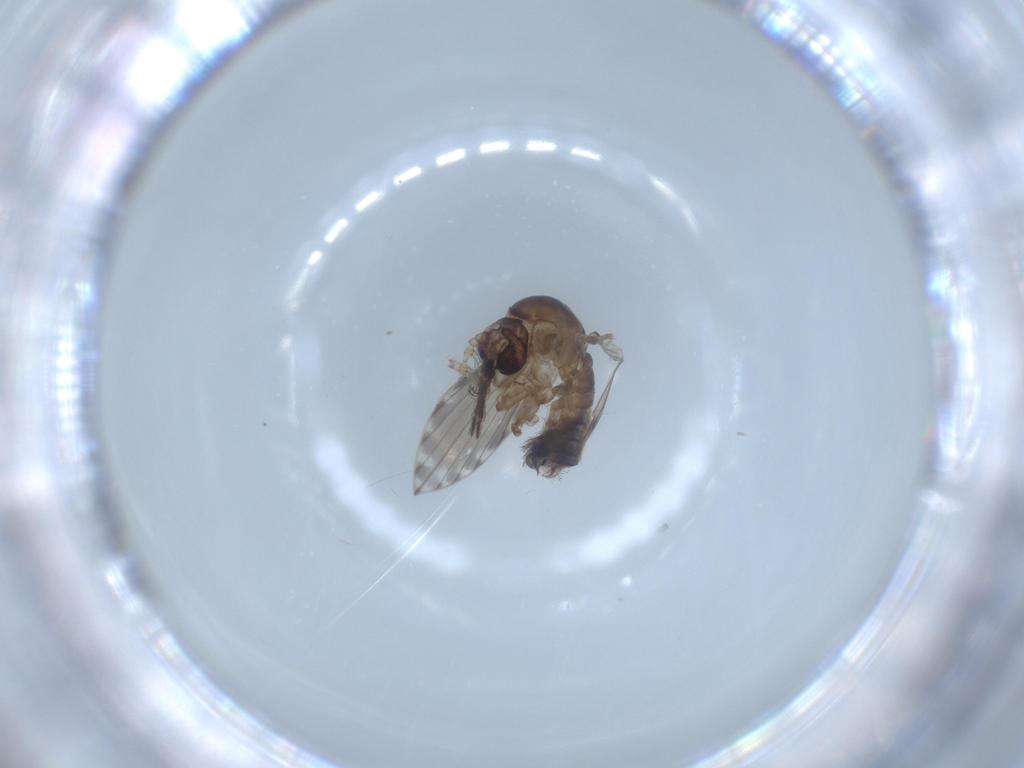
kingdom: Animalia
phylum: Arthropoda
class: Insecta
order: Diptera
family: Psychodidae
